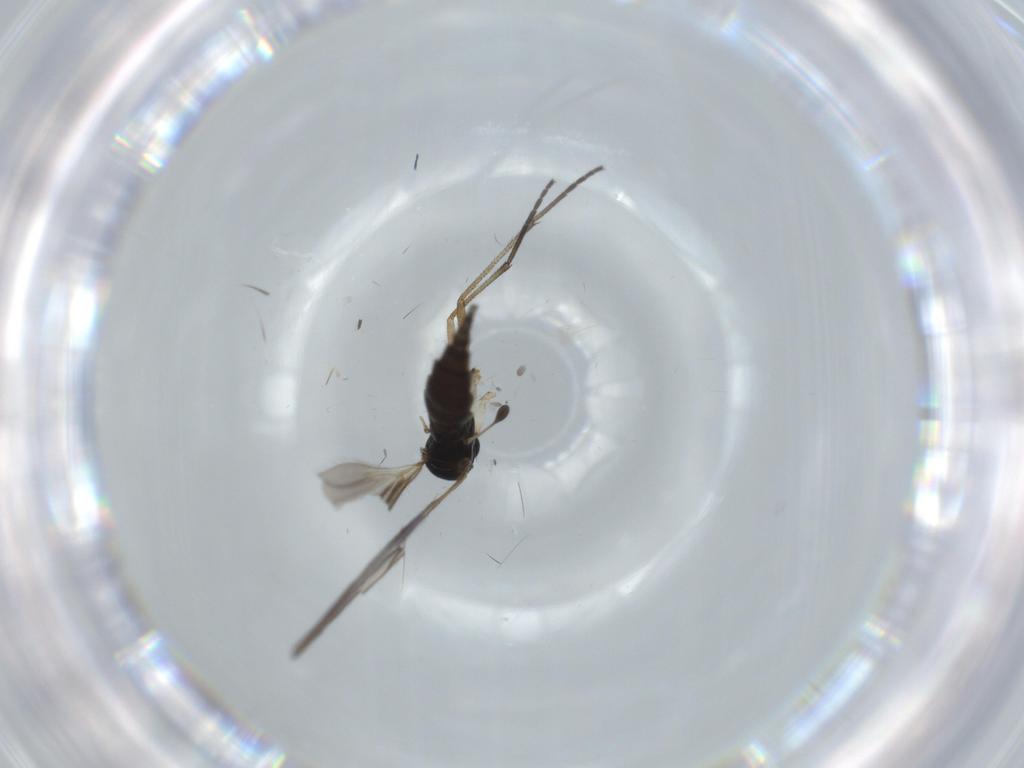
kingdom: Animalia
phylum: Arthropoda
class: Insecta
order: Diptera
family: Sciaridae
